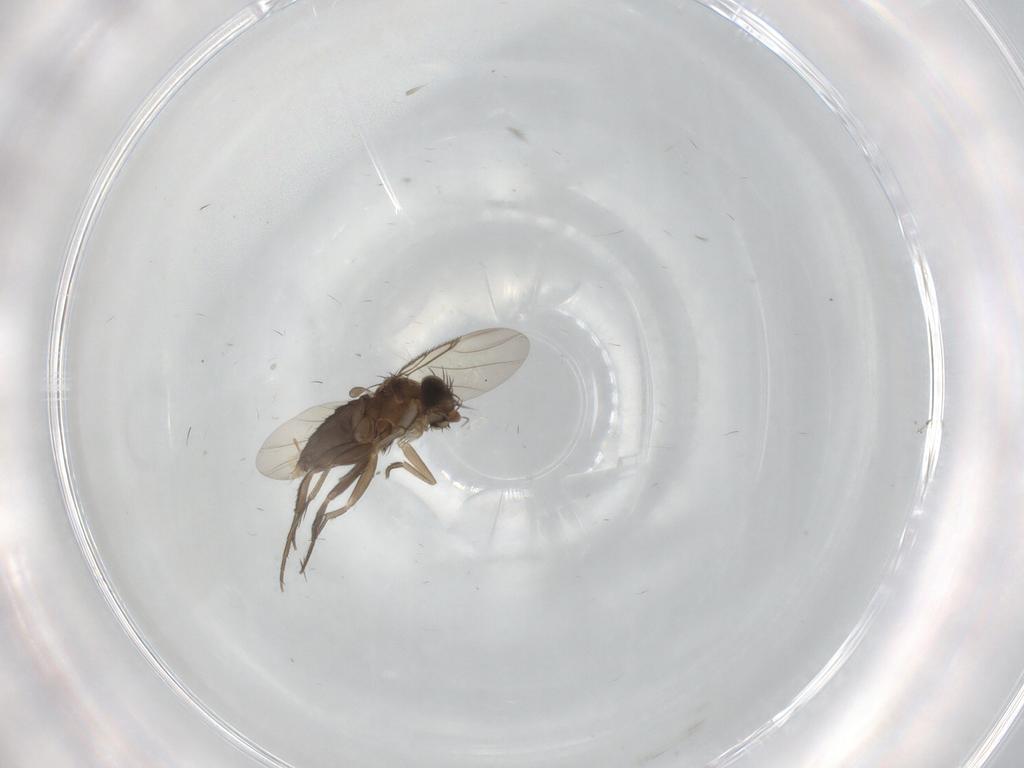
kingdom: Animalia
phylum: Arthropoda
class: Insecta
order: Diptera
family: Phoridae
